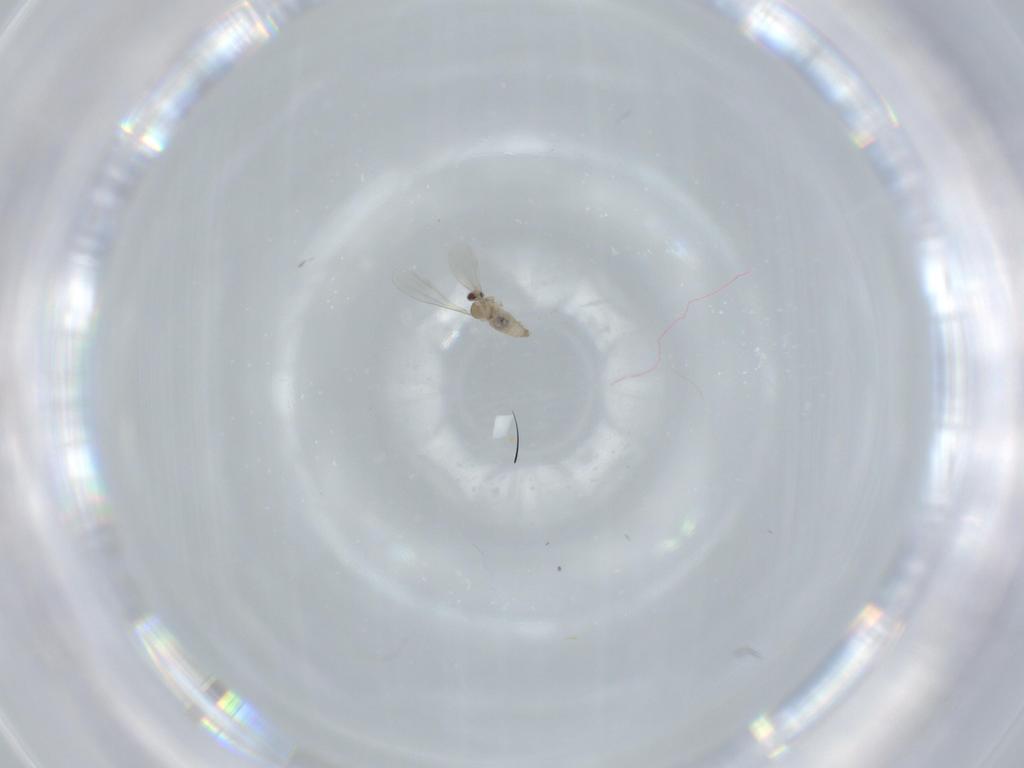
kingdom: Animalia
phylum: Arthropoda
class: Insecta
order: Diptera
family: Cecidomyiidae
